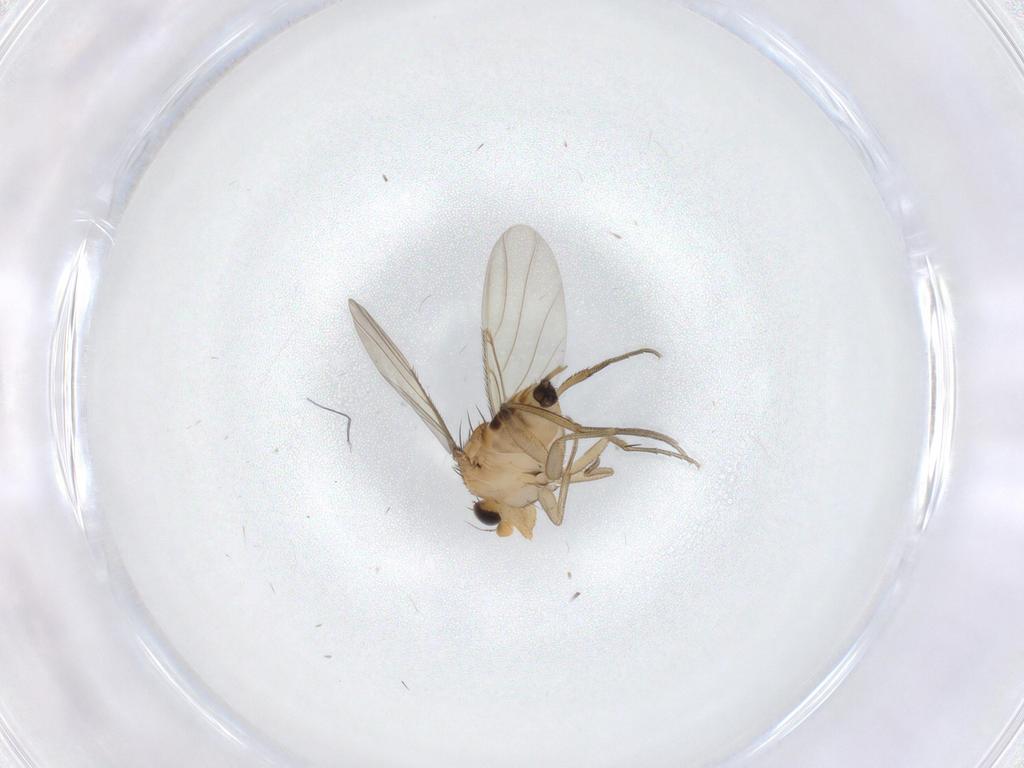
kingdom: Animalia
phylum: Arthropoda
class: Insecta
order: Diptera
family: Phoridae
